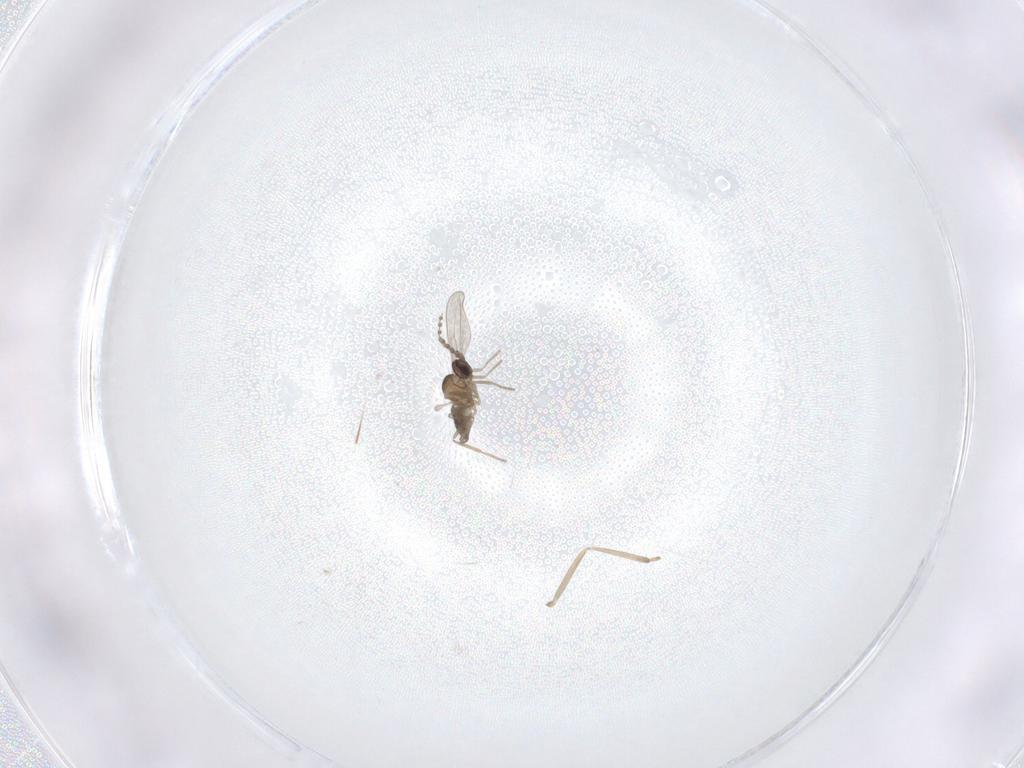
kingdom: Animalia
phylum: Arthropoda
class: Insecta
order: Diptera
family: Cecidomyiidae
